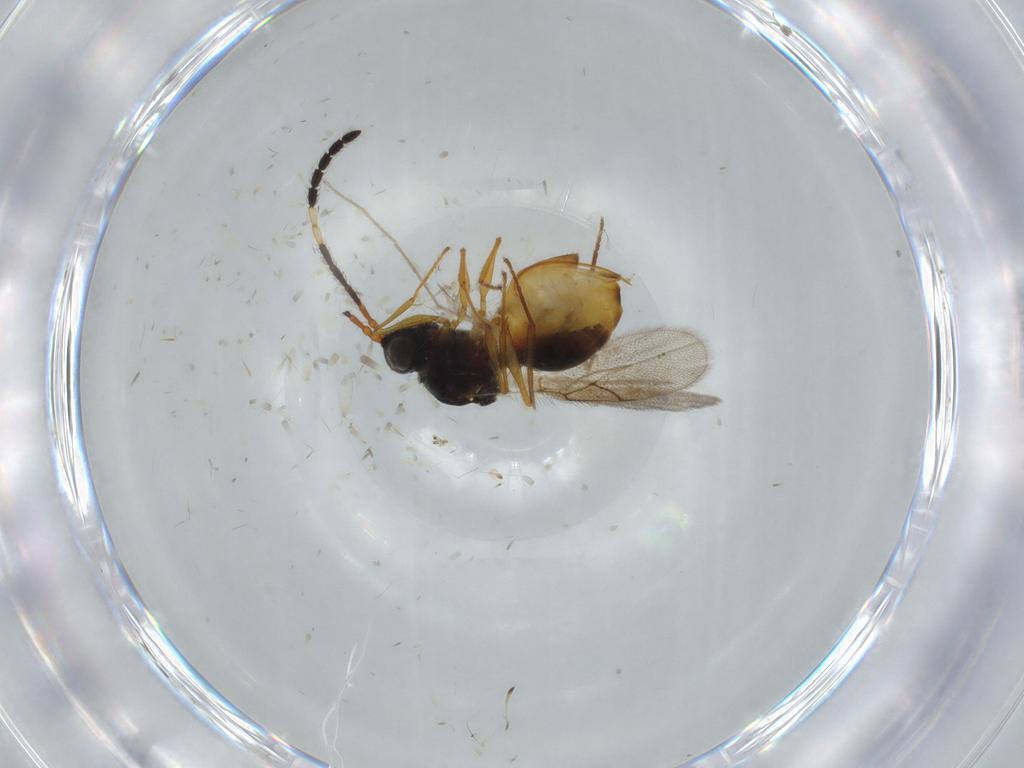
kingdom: Animalia
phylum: Arthropoda
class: Insecta
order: Hymenoptera
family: Figitidae
